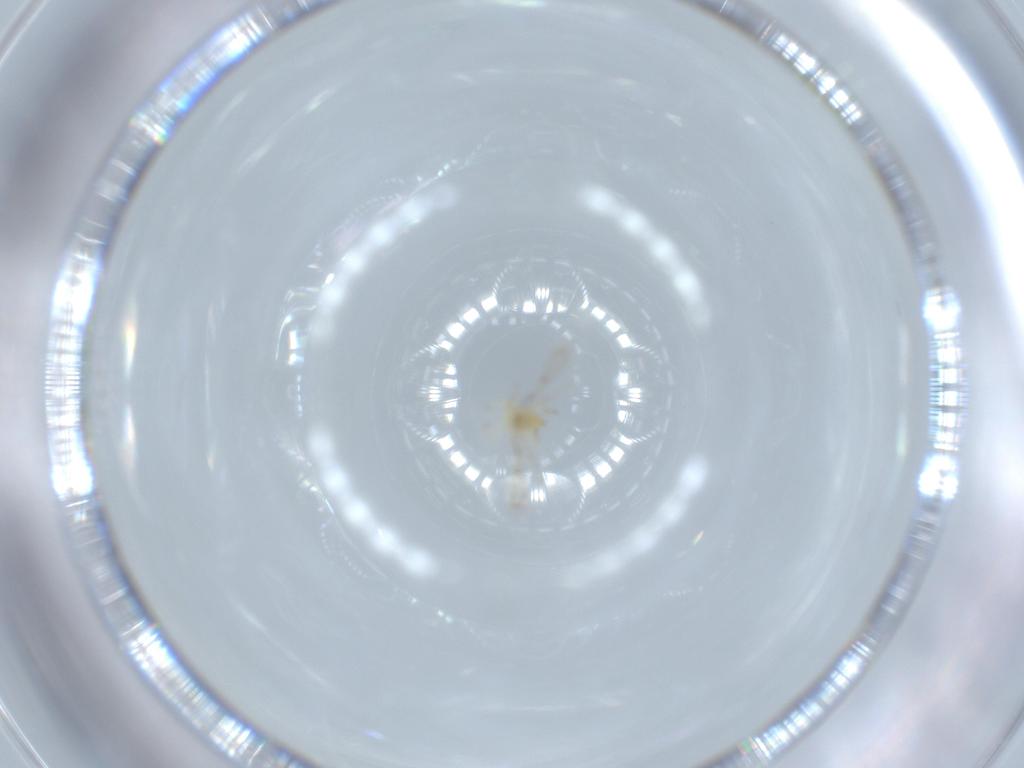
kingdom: Animalia
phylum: Arthropoda
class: Insecta
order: Hymenoptera
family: Trichogrammatidae
